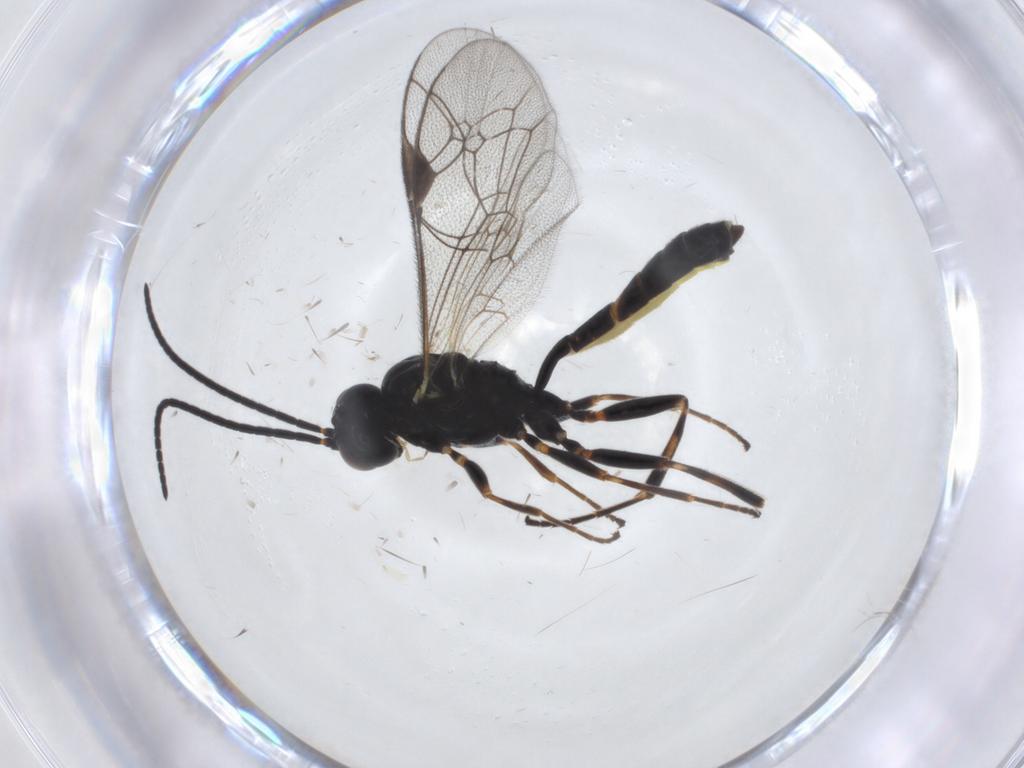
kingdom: Animalia
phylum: Arthropoda
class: Insecta
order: Hymenoptera
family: Ichneumonidae
